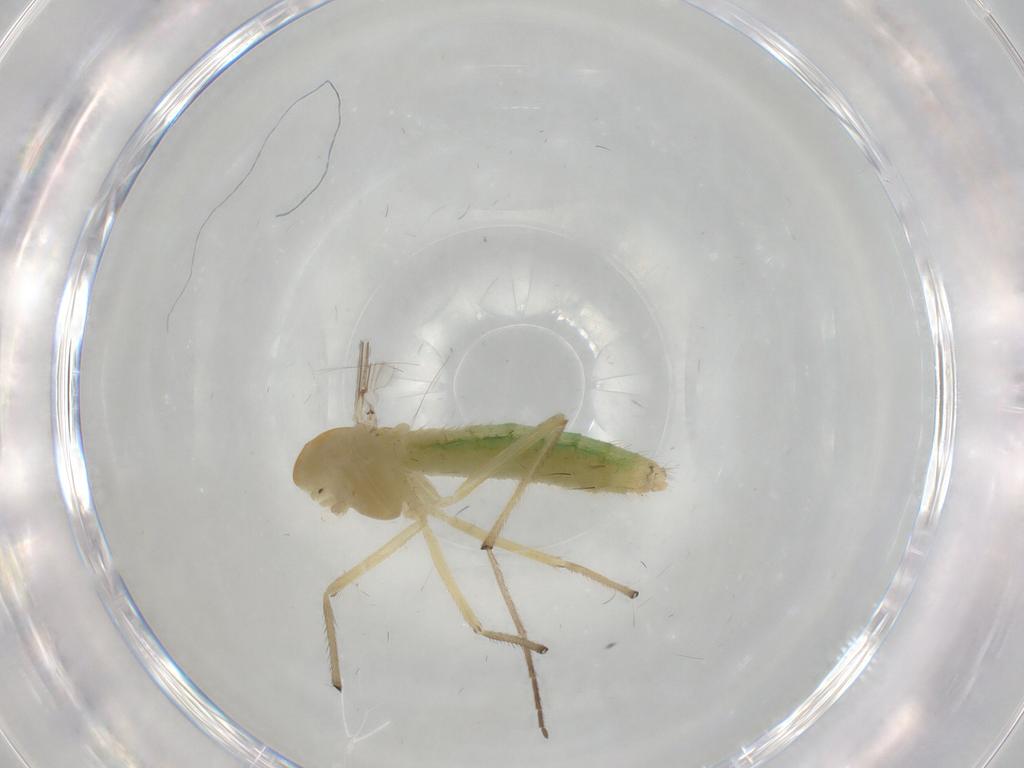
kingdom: Animalia
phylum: Arthropoda
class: Insecta
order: Diptera
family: Chironomidae
